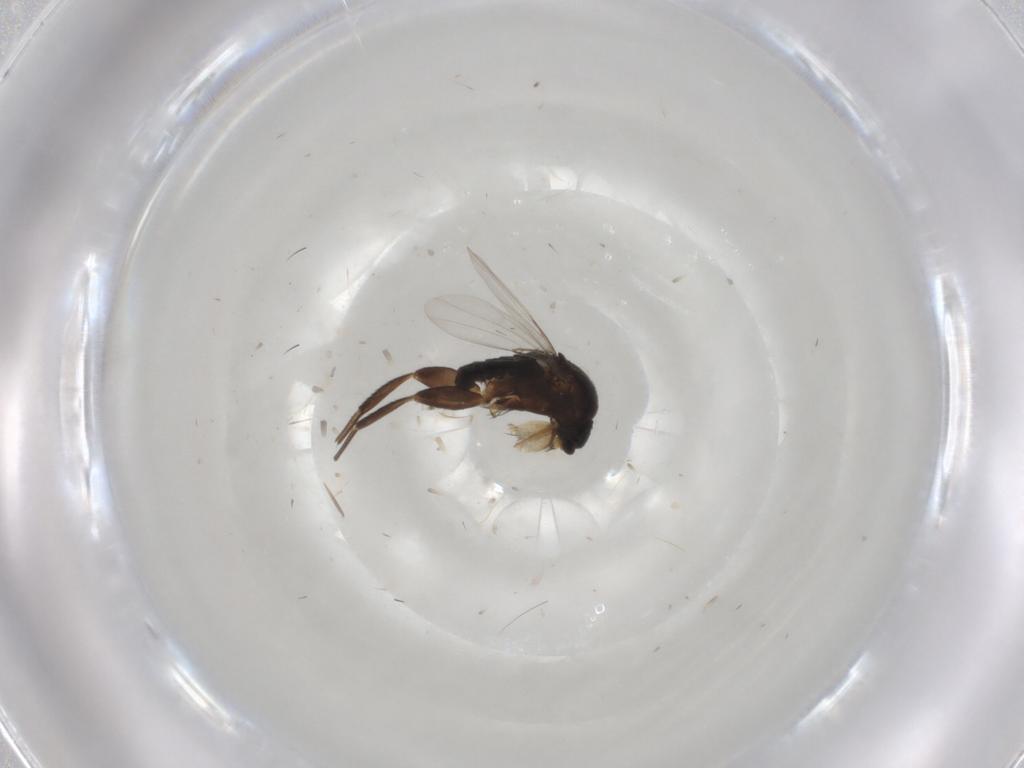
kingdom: Animalia
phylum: Arthropoda
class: Insecta
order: Diptera
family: Phoridae
